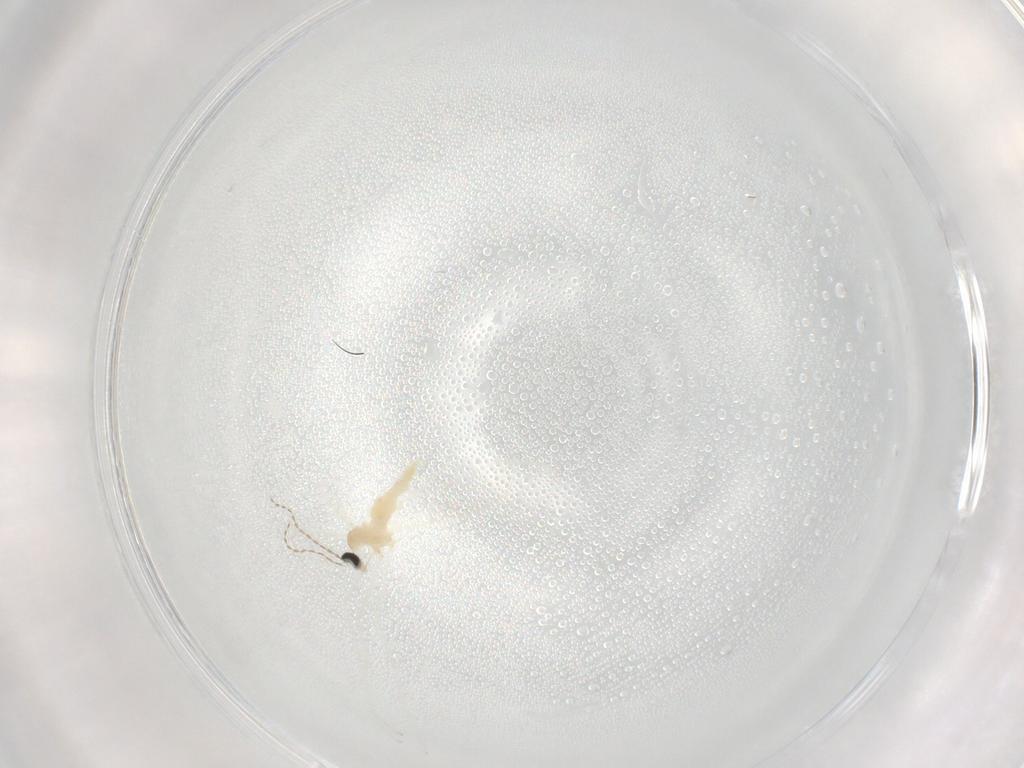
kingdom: Animalia
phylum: Arthropoda
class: Insecta
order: Diptera
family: Cecidomyiidae
